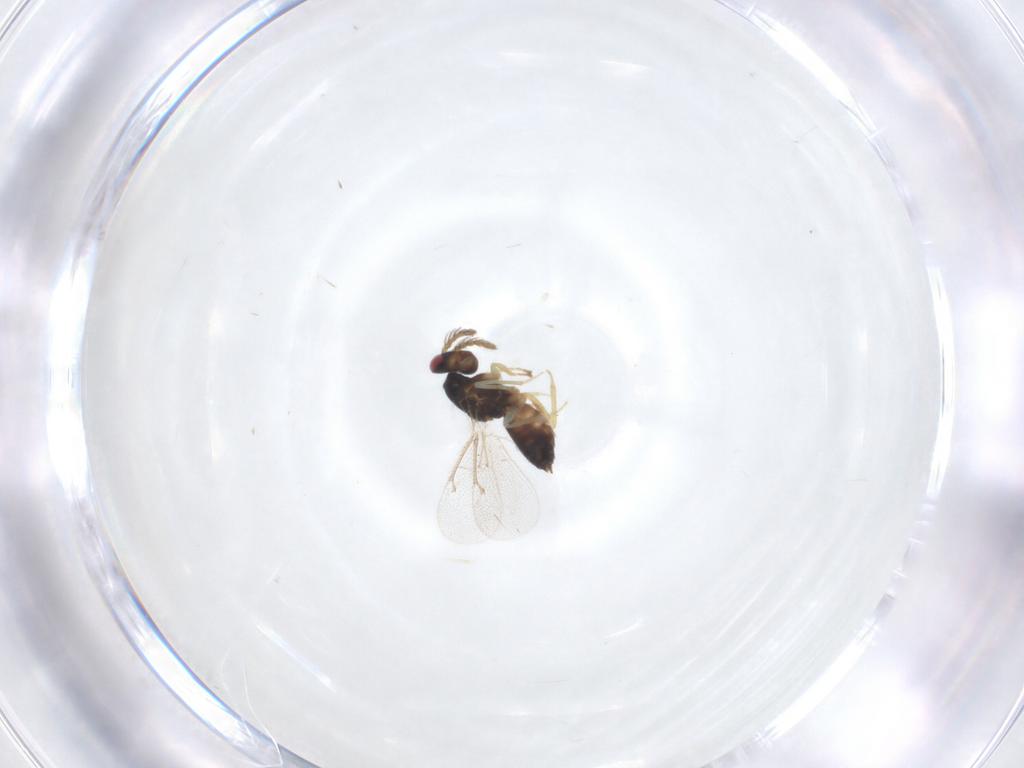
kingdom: Animalia
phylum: Arthropoda
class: Insecta
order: Hymenoptera
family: Eulophidae
